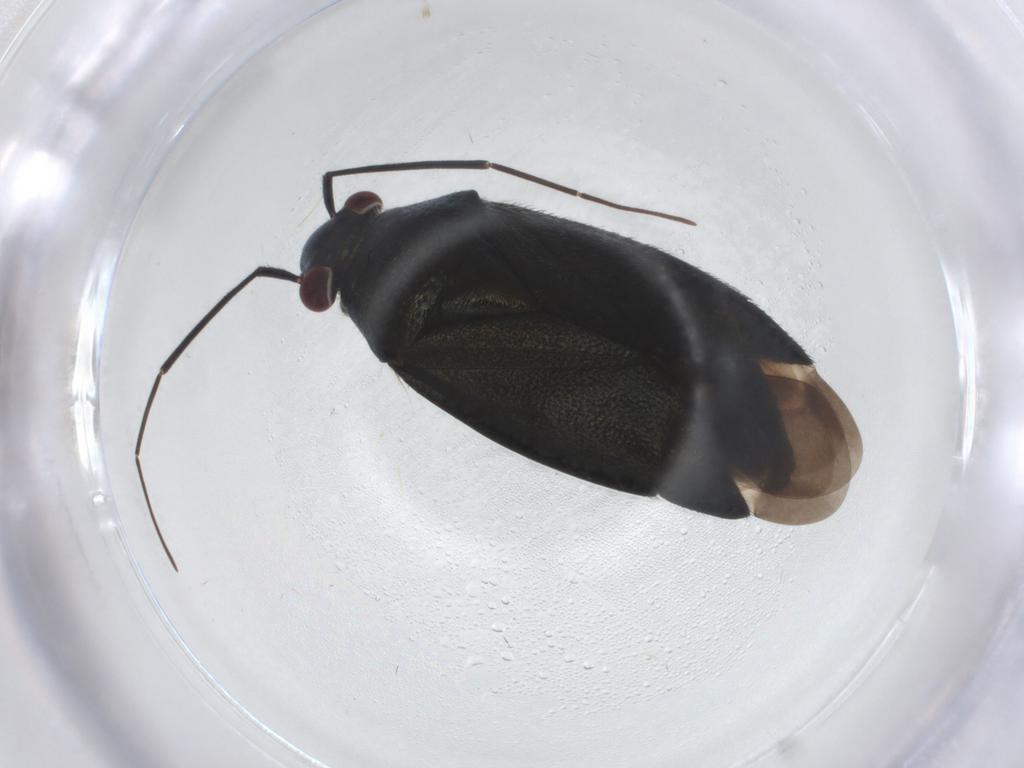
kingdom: Animalia
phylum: Arthropoda
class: Insecta
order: Hemiptera
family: Miridae
